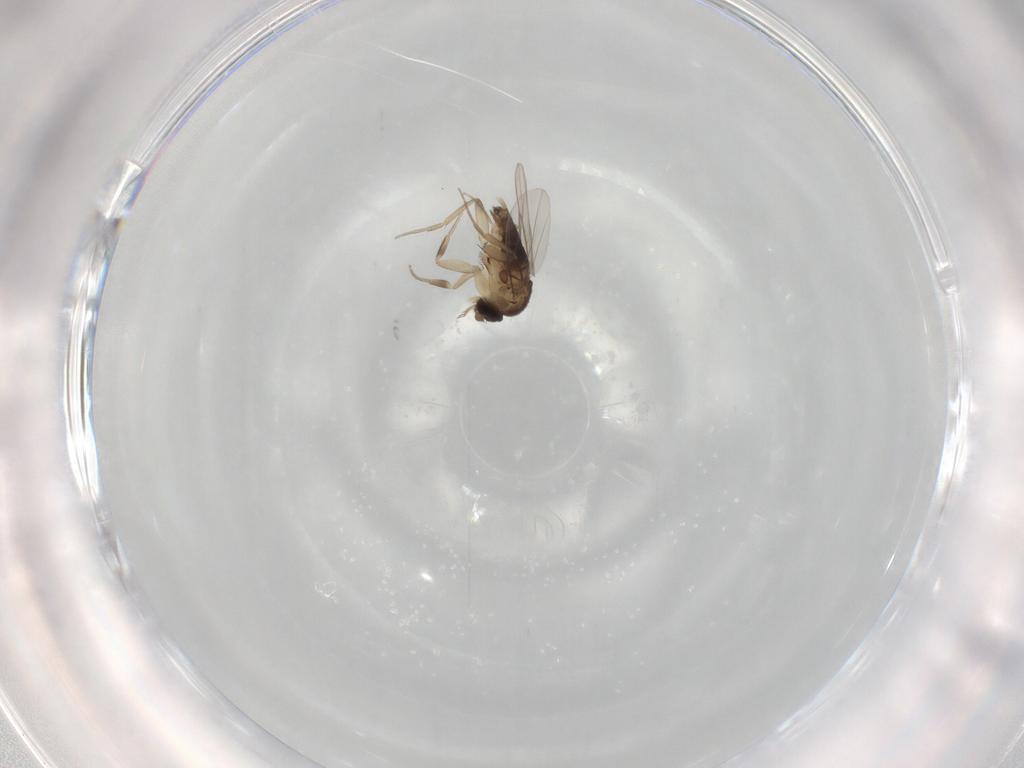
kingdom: Animalia
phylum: Arthropoda
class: Insecta
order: Diptera
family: Phoridae
